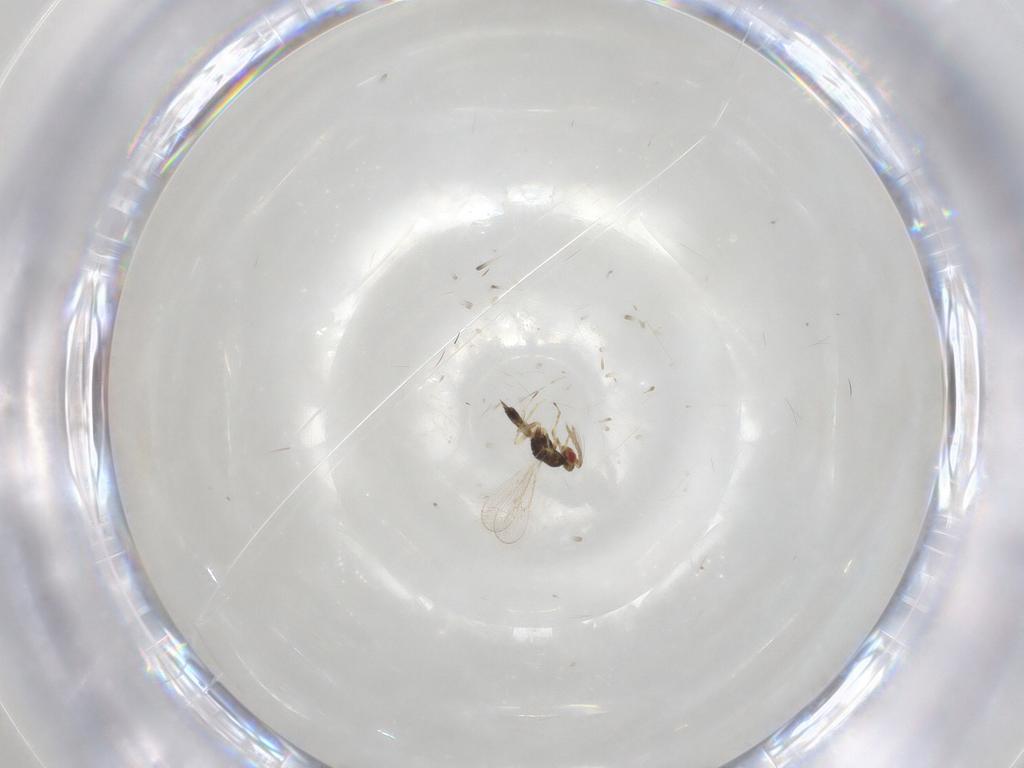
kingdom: Animalia
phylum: Arthropoda
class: Insecta
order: Hymenoptera
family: Eulophidae
